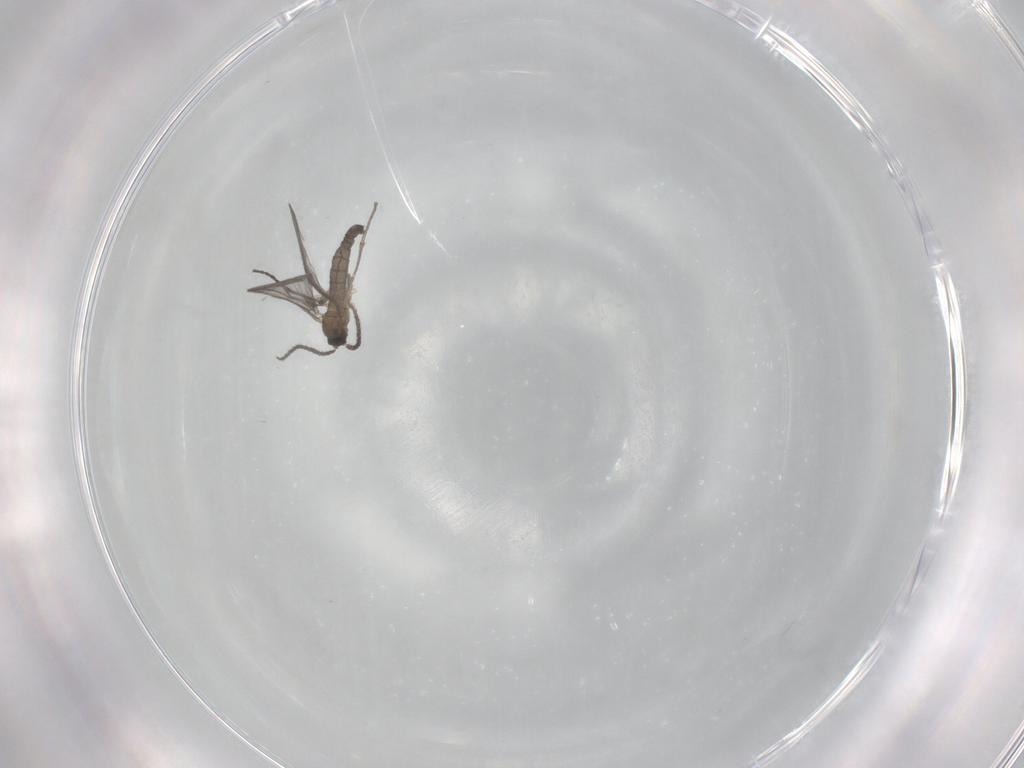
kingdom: Animalia
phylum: Arthropoda
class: Insecta
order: Diptera
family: Sciaridae
